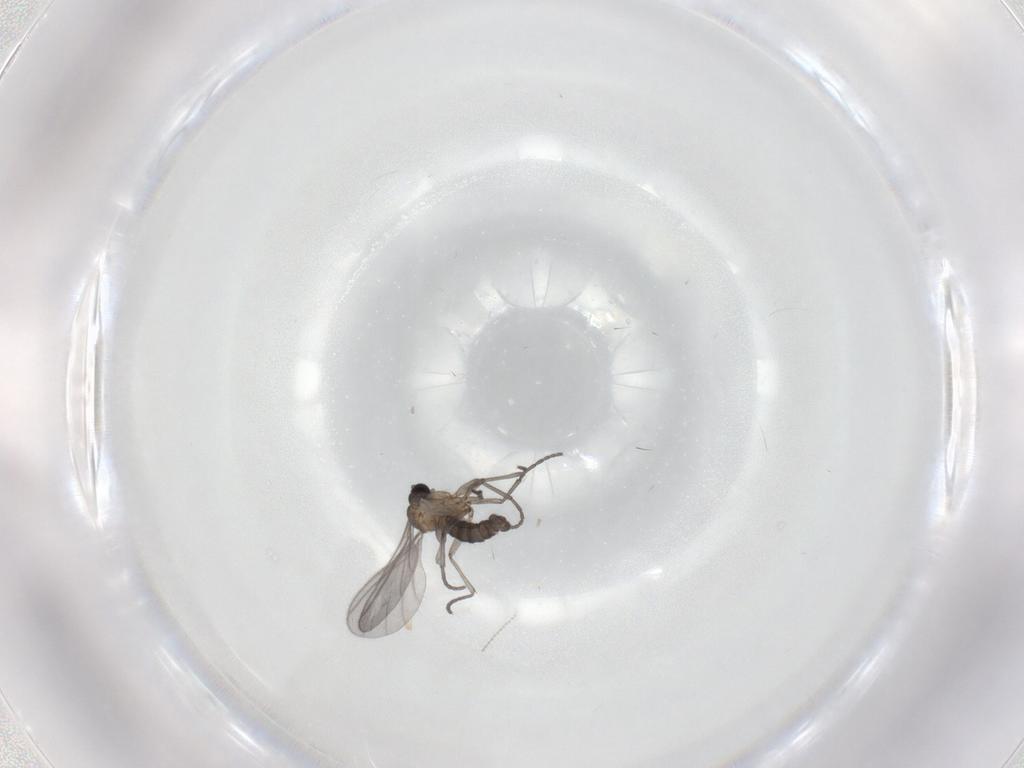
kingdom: Animalia
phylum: Arthropoda
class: Insecta
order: Diptera
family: Sciaridae
